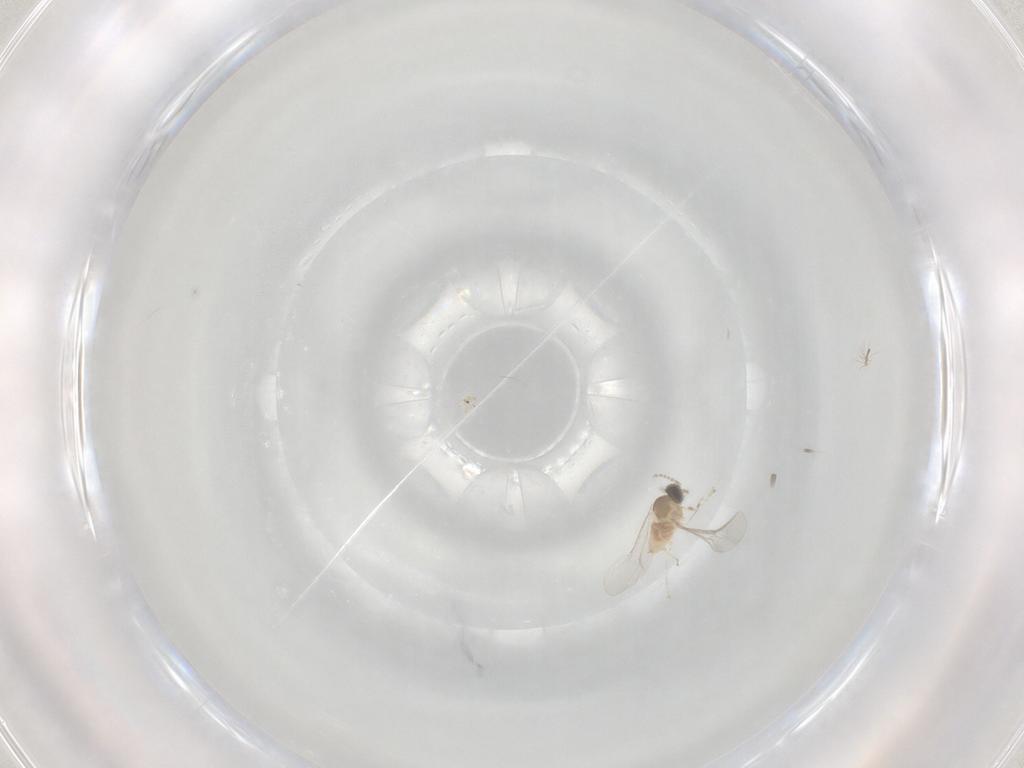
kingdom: Animalia
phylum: Arthropoda
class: Insecta
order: Diptera
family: Cecidomyiidae
